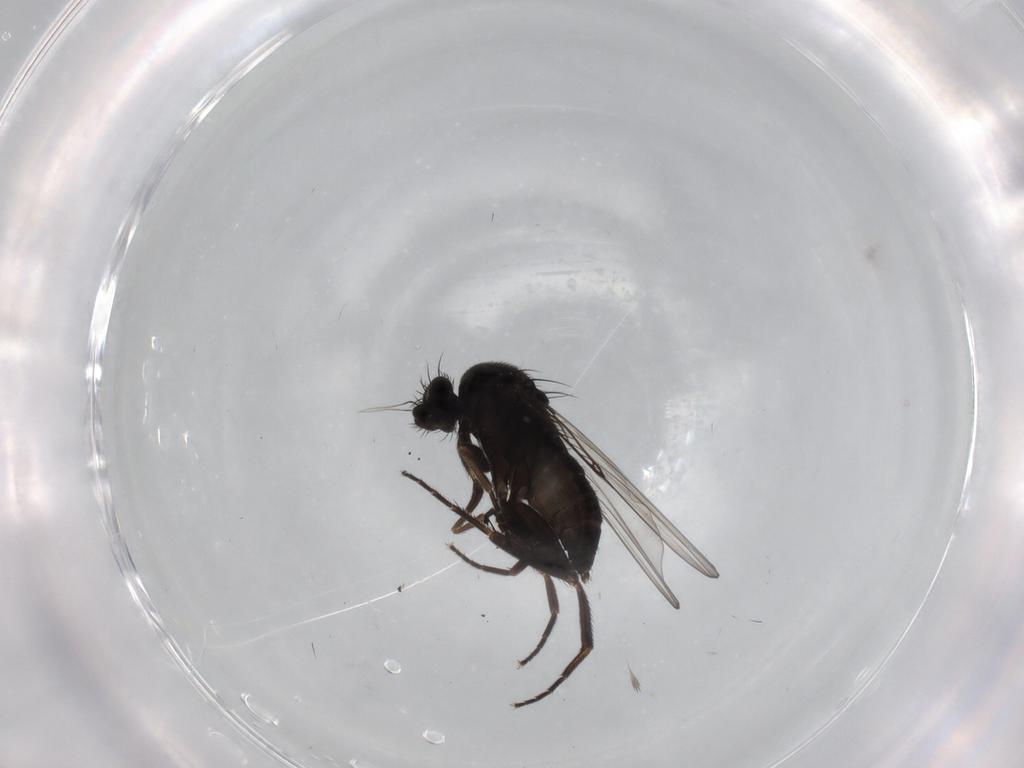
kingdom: Animalia
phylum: Arthropoda
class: Insecta
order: Diptera
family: Phoridae
